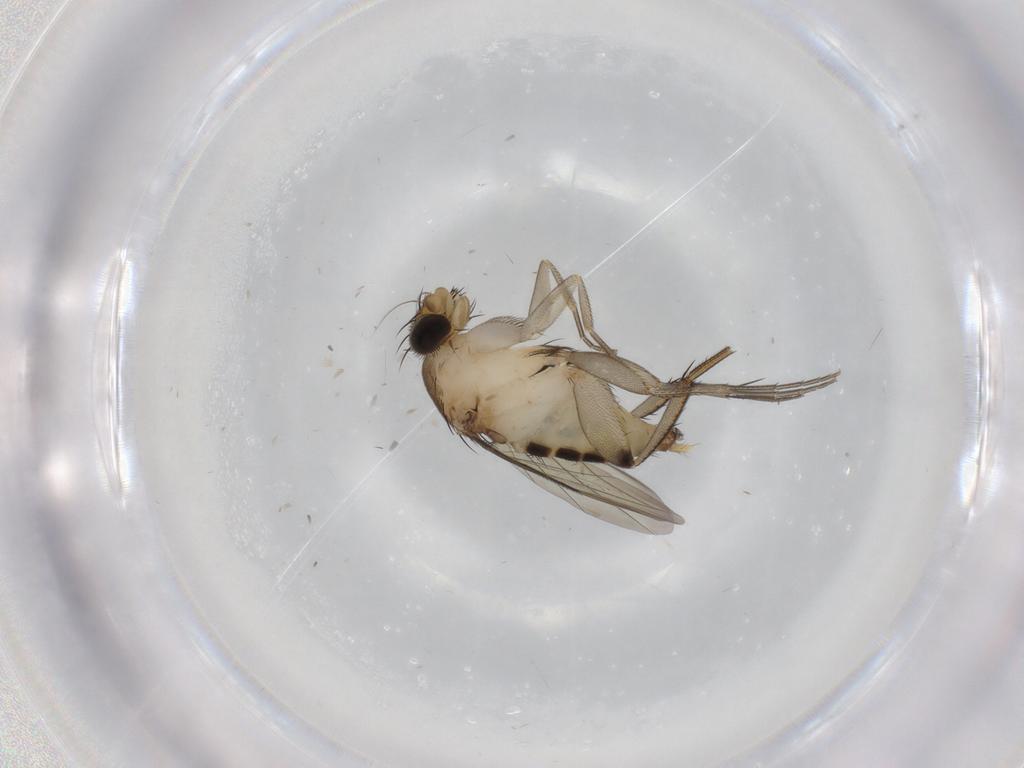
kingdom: Animalia
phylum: Arthropoda
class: Insecta
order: Diptera
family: Phoridae
